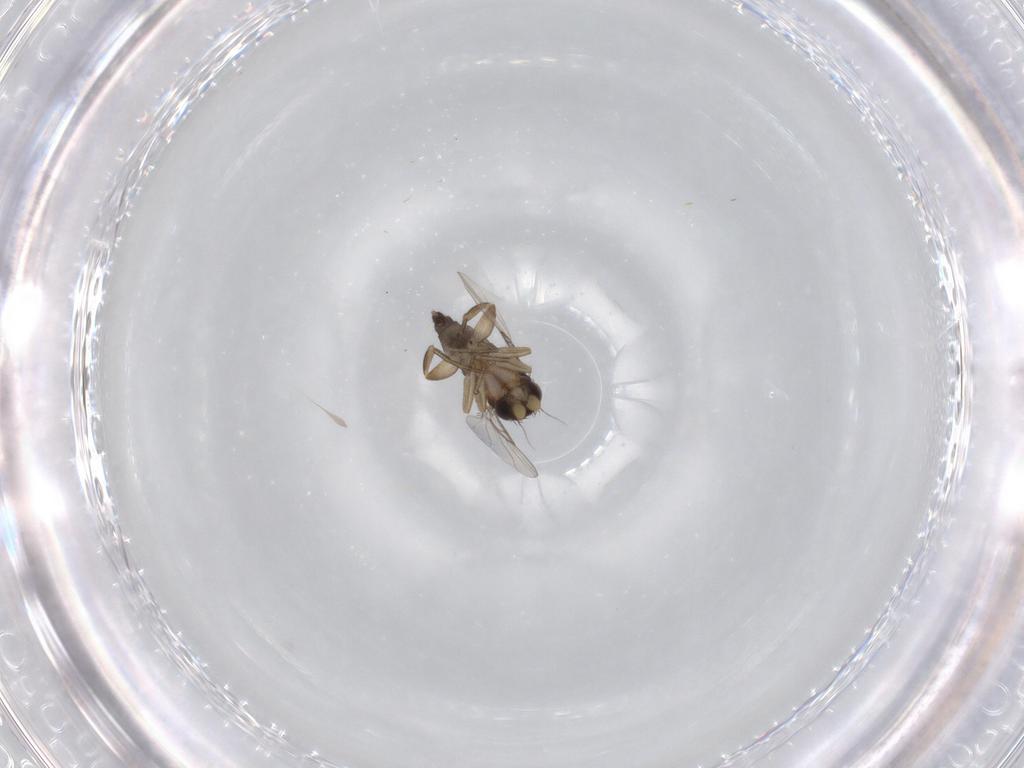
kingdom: Animalia
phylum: Arthropoda
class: Insecta
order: Diptera
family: Phoridae
